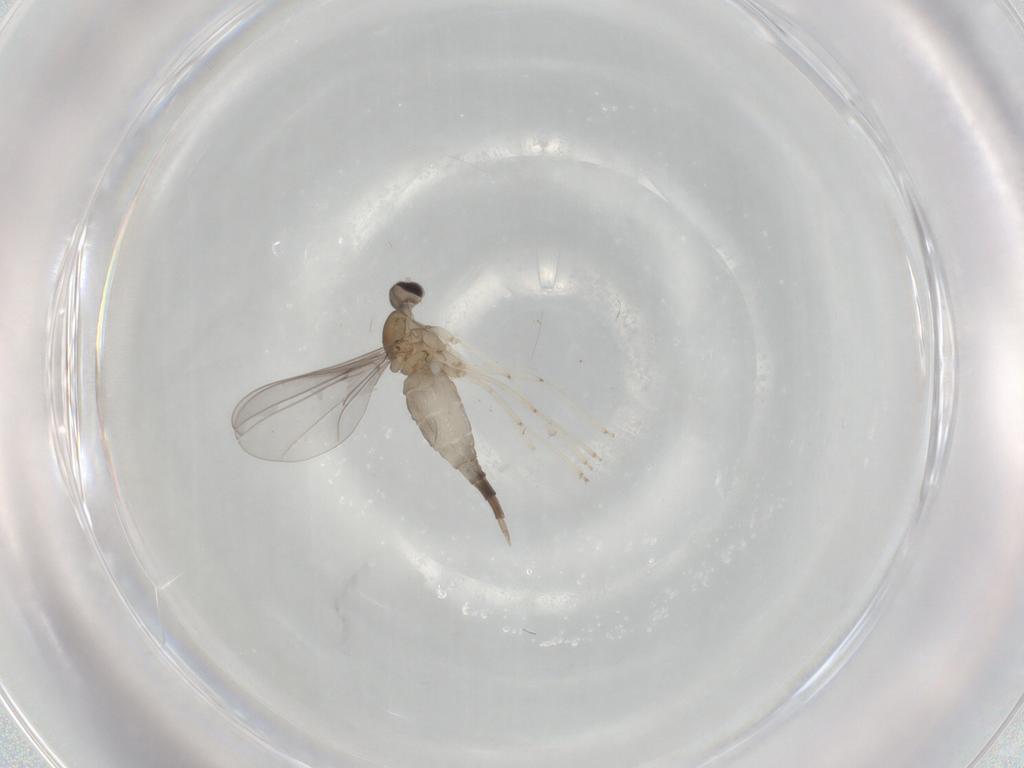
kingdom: Animalia
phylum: Arthropoda
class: Insecta
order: Diptera
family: Cecidomyiidae
